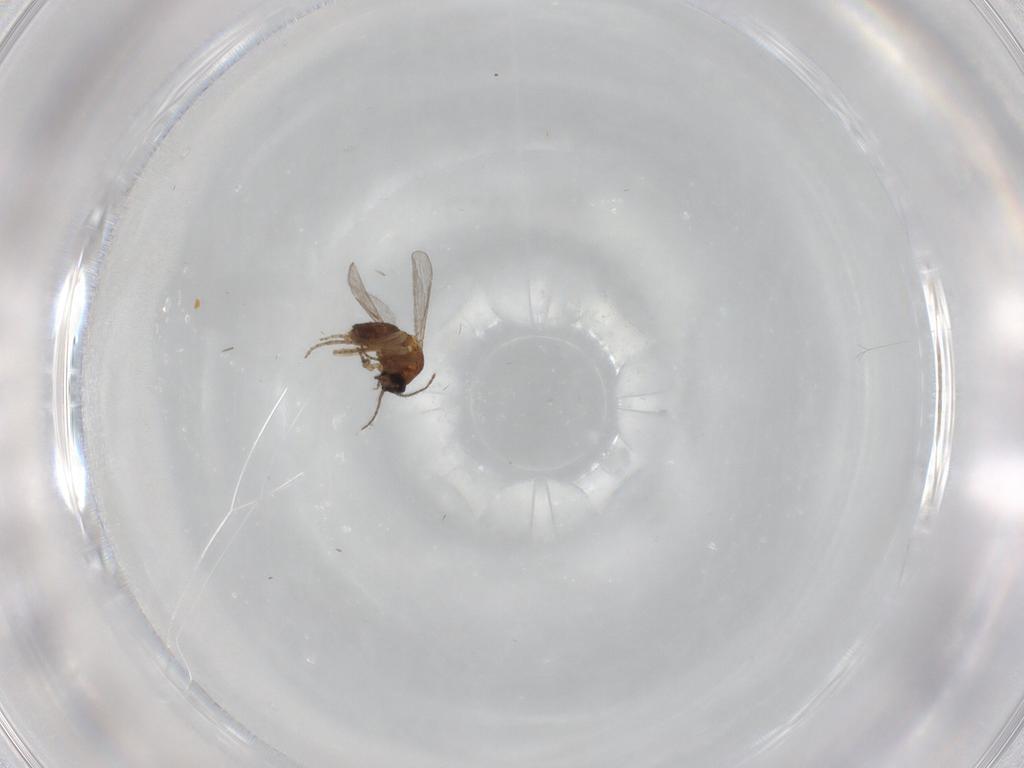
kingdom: Animalia
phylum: Arthropoda
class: Insecta
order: Diptera
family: Ceratopogonidae
